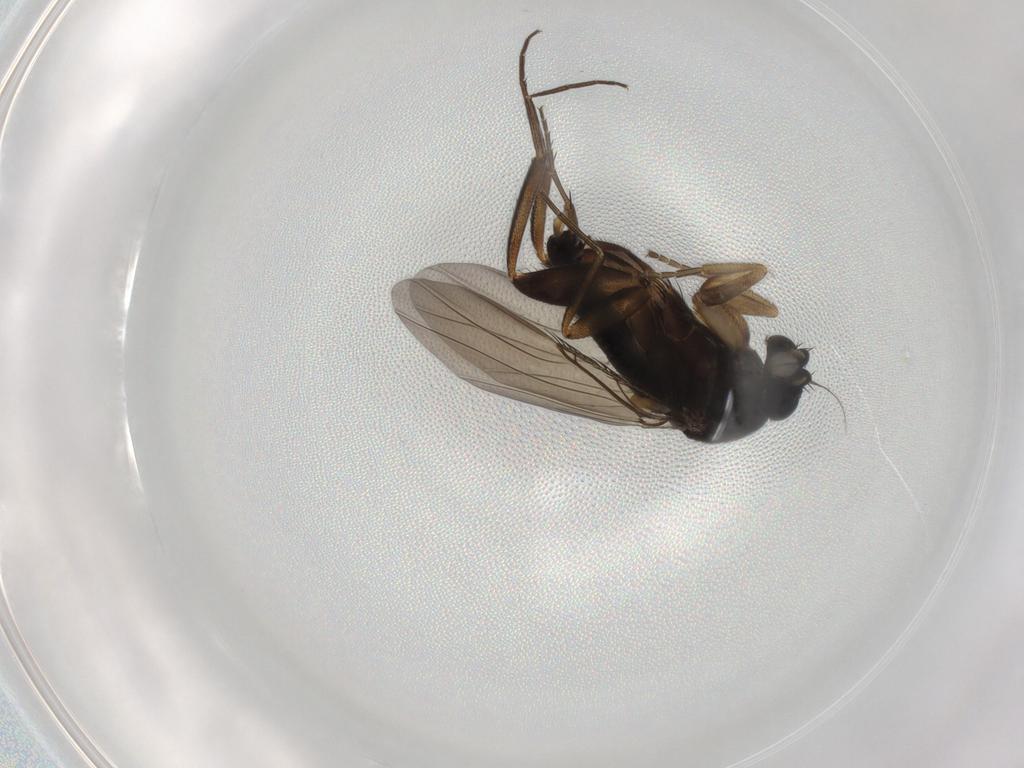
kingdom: Animalia
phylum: Arthropoda
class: Insecta
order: Diptera
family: Phoridae
